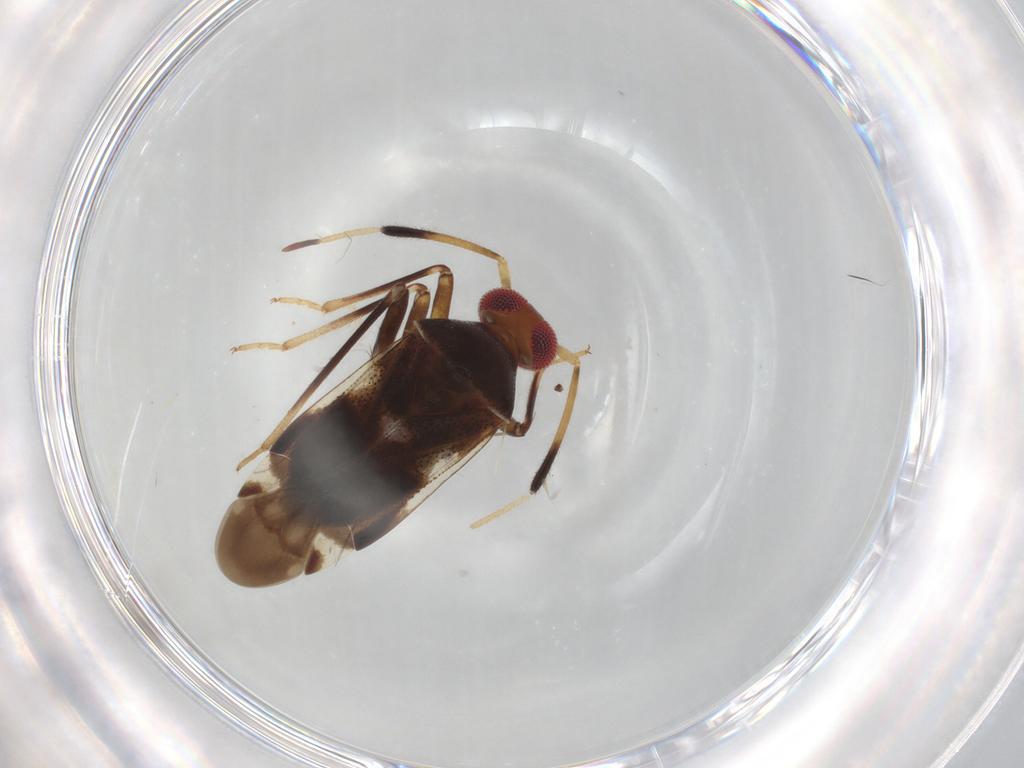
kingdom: Animalia
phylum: Arthropoda
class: Insecta
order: Hemiptera
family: Miridae
